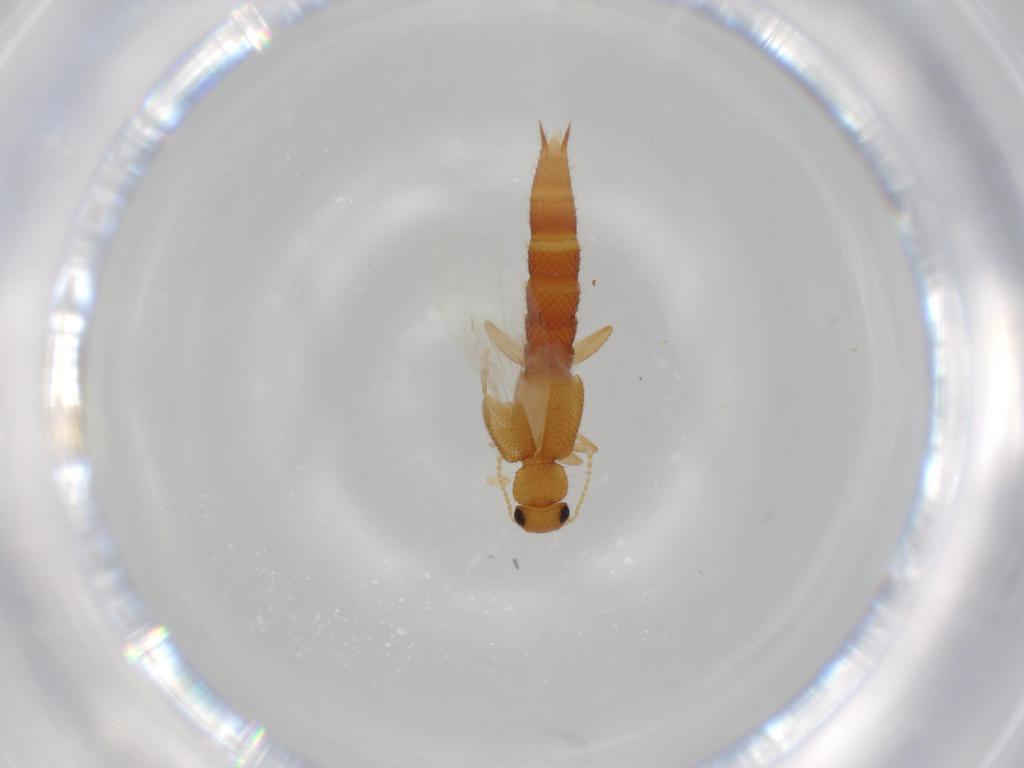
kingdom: Animalia
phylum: Arthropoda
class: Insecta
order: Coleoptera
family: Staphylinidae
